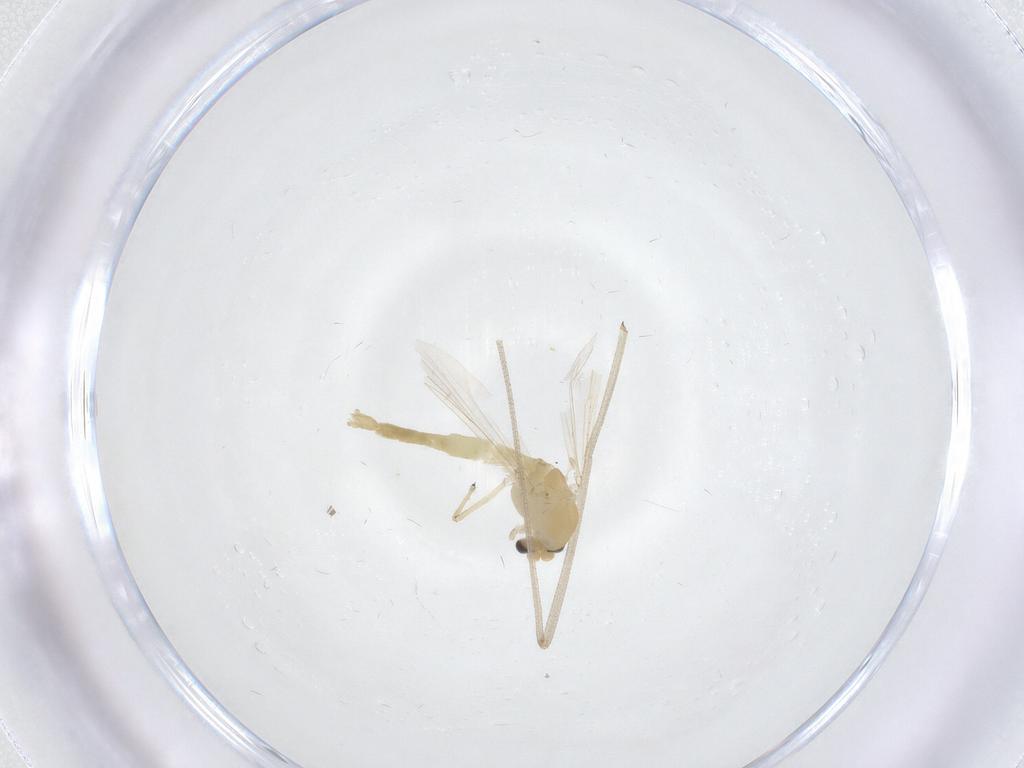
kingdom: Animalia
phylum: Arthropoda
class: Insecta
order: Diptera
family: Chironomidae
